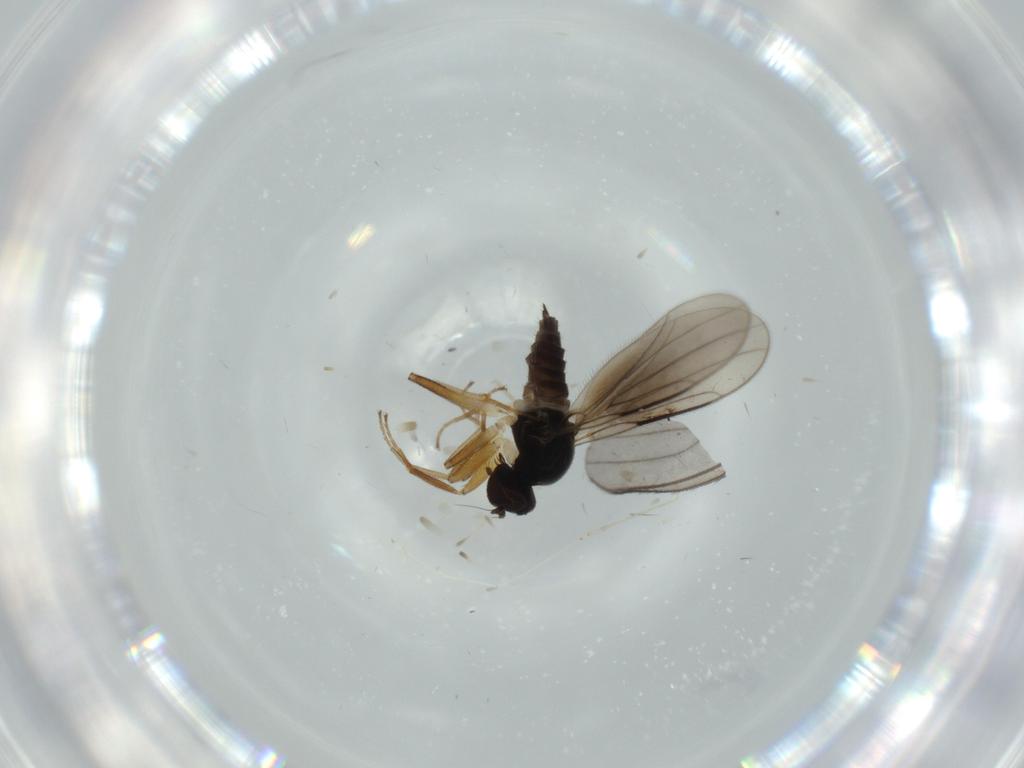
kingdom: Animalia
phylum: Arthropoda
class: Insecta
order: Diptera
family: Hybotidae
